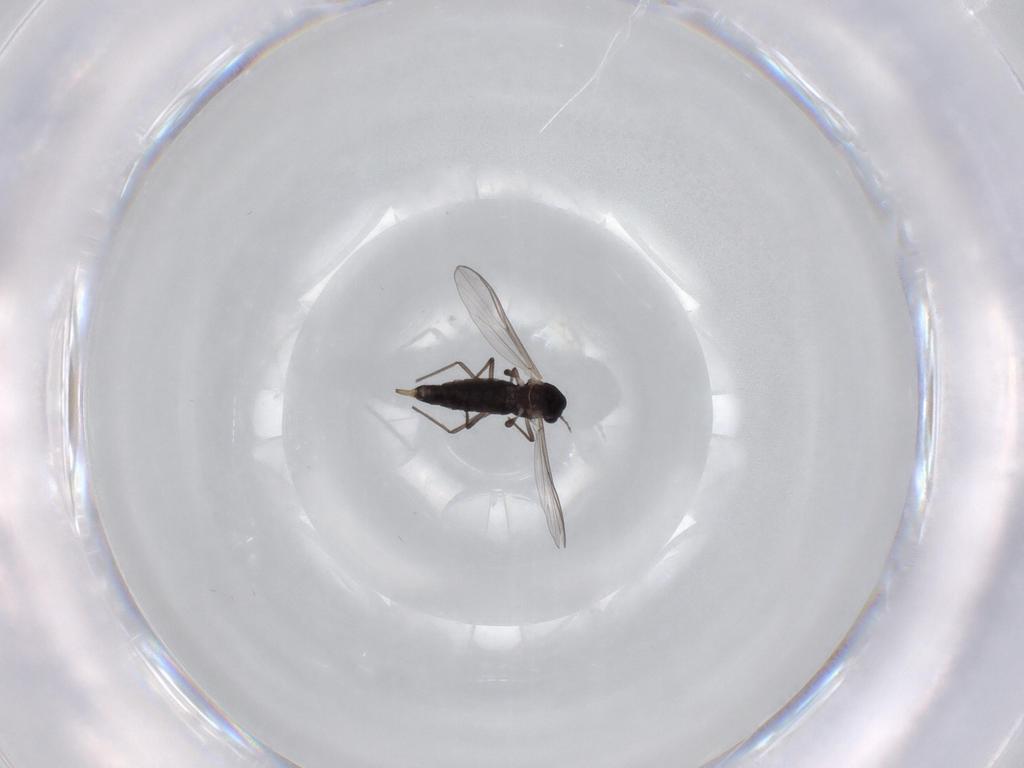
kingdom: Animalia
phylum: Arthropoda
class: Insecta
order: Diptera
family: Chironomidae
